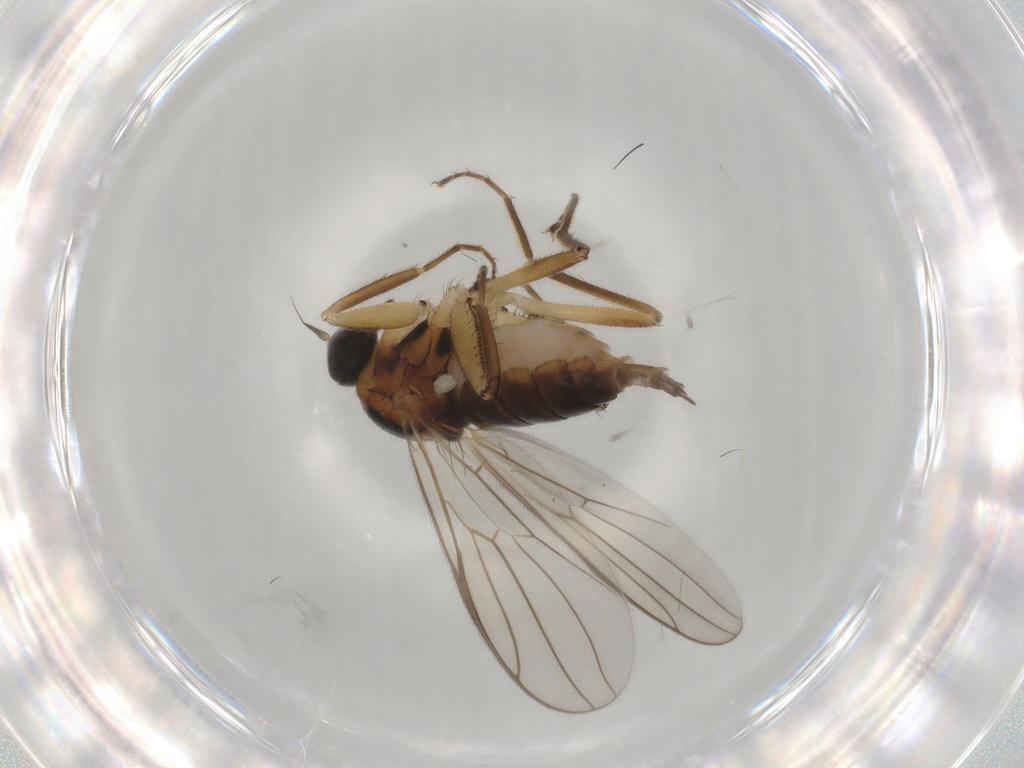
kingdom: Animalia
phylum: Arthropoda
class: Insecta
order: Diptera
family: Hybotidae
